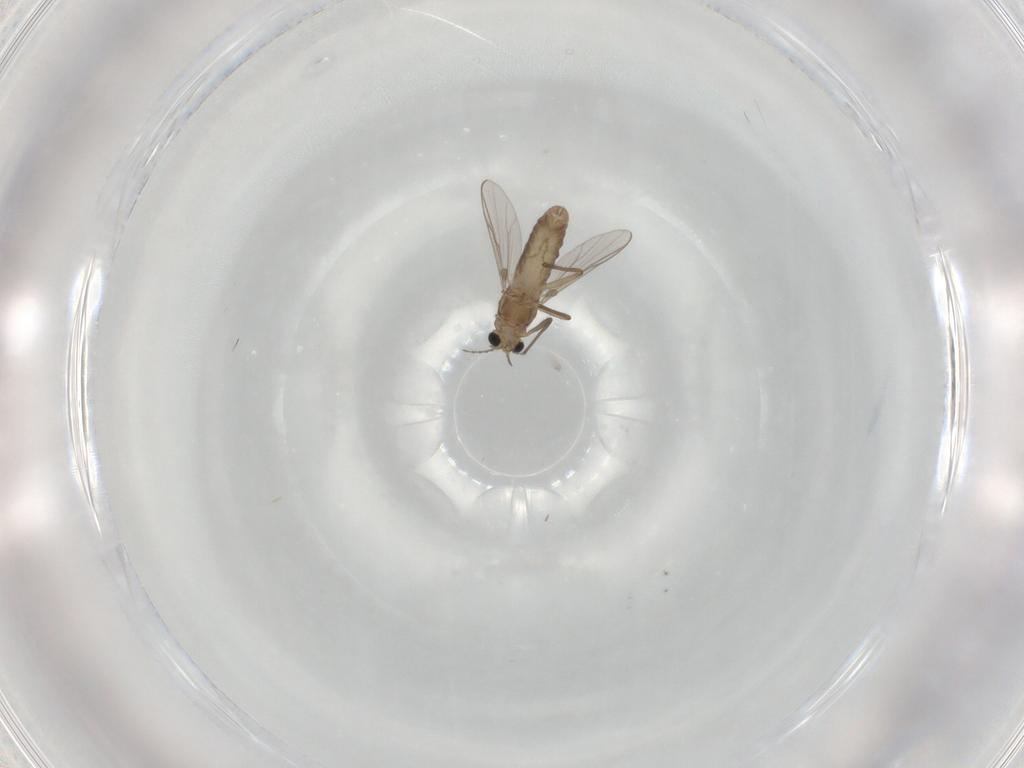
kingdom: Animalia
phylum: Arthropoda
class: Insecta
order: Diptera
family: Chironomidae
